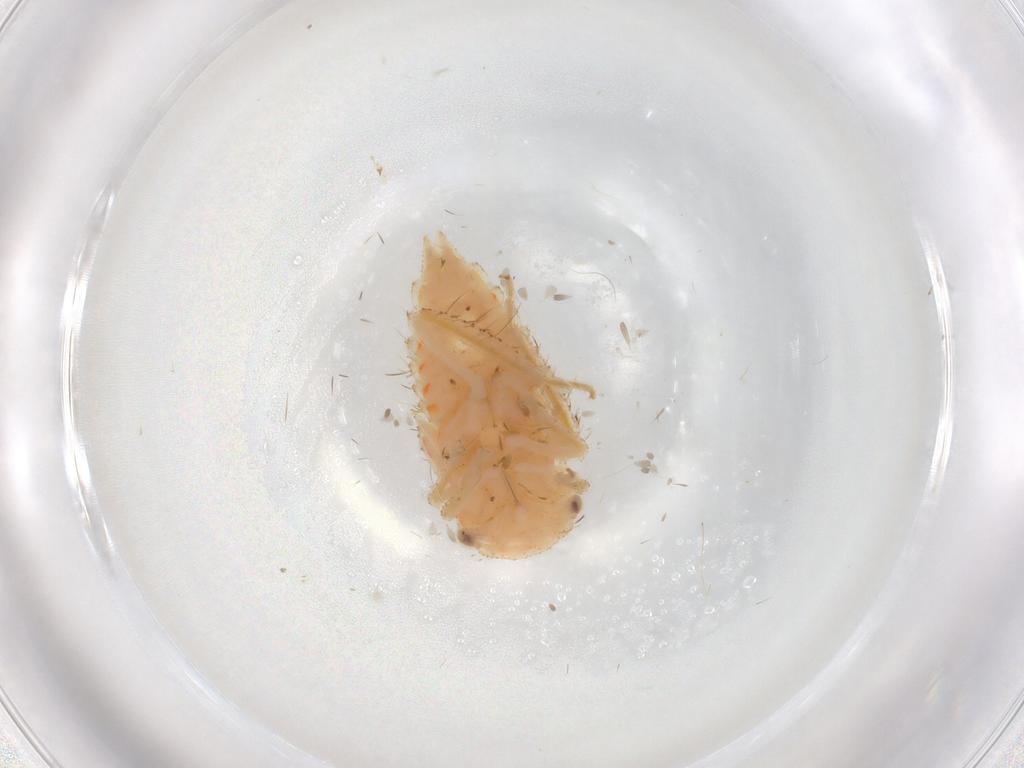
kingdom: Animalia
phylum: Arthropoda
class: Insecta
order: Hemiptera
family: Cicadellidae
